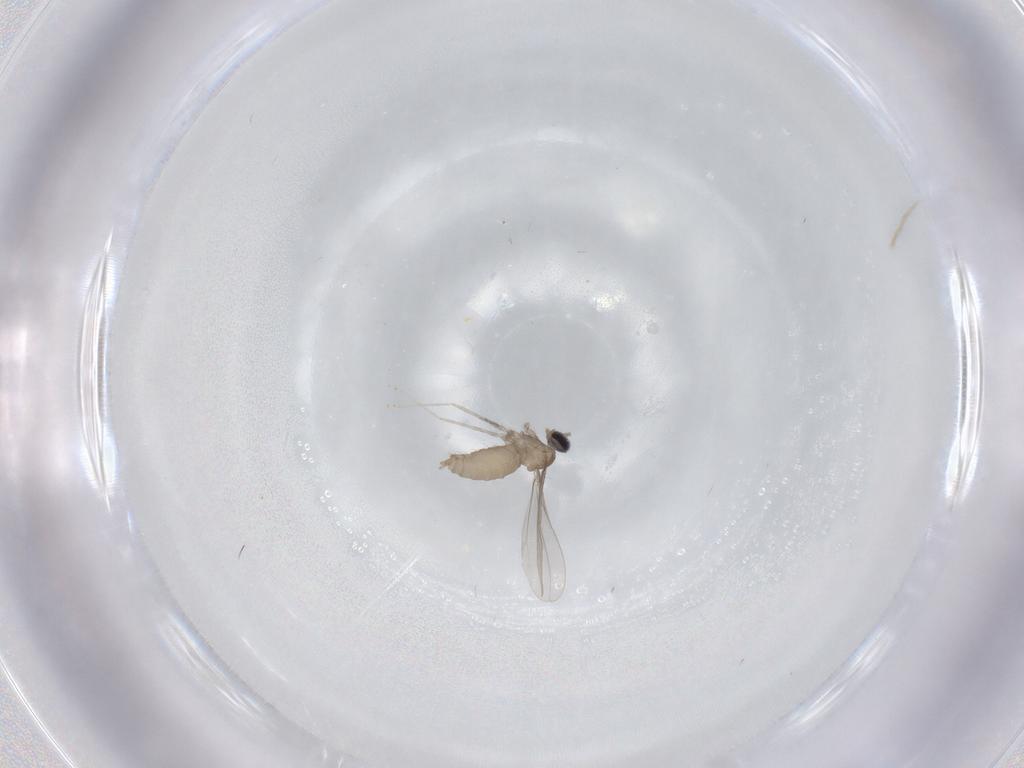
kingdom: Animalia
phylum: Arthropoda
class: Insecta
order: Diptera
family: Cecidomyiidae
